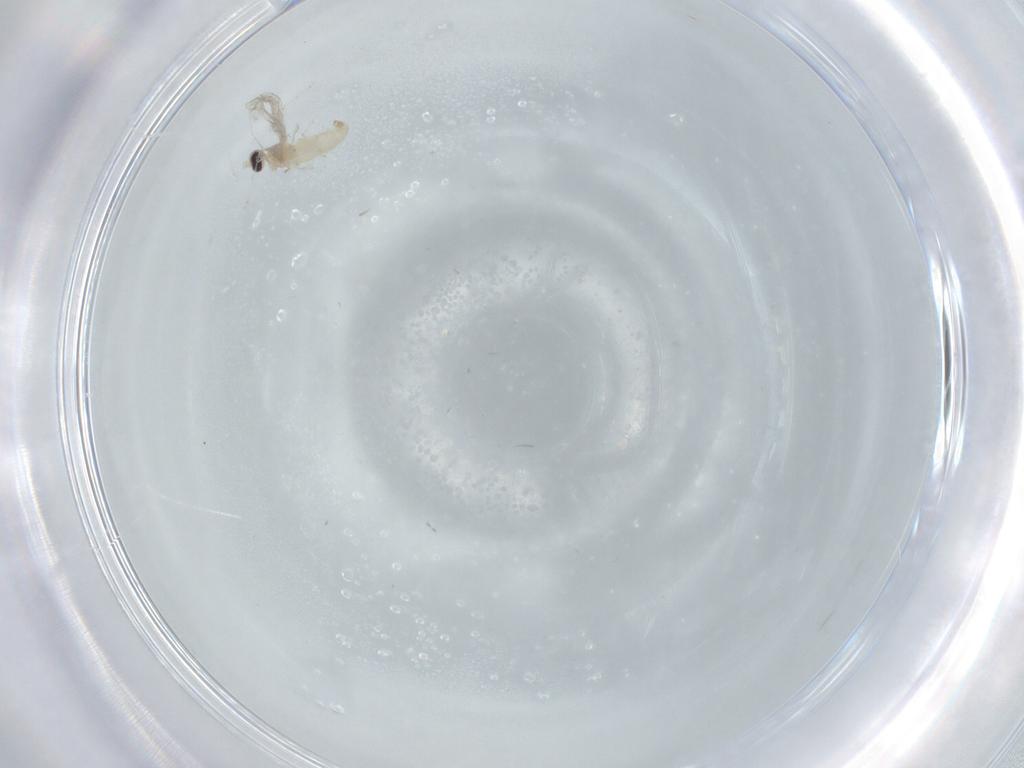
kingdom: Animalia
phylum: Arthropoda
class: Insecta
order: Diptera
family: Cecidomyiidae
